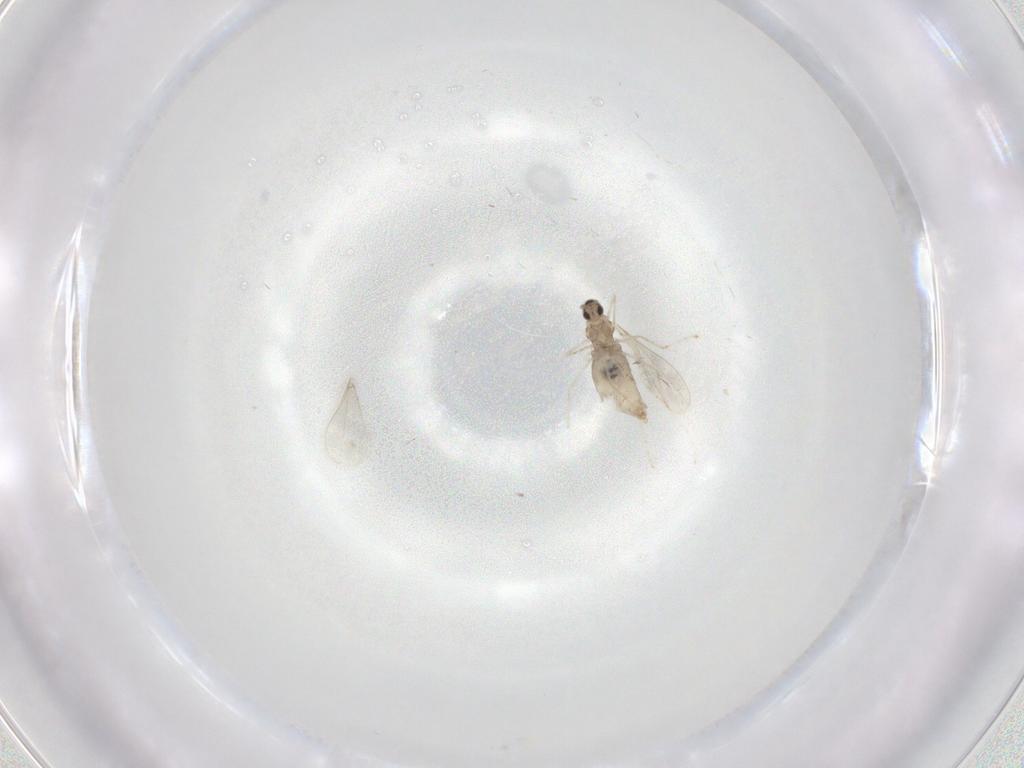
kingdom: Animalia
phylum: Arthropoda
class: Insecta
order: Diptera
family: Cecidomyiidae
